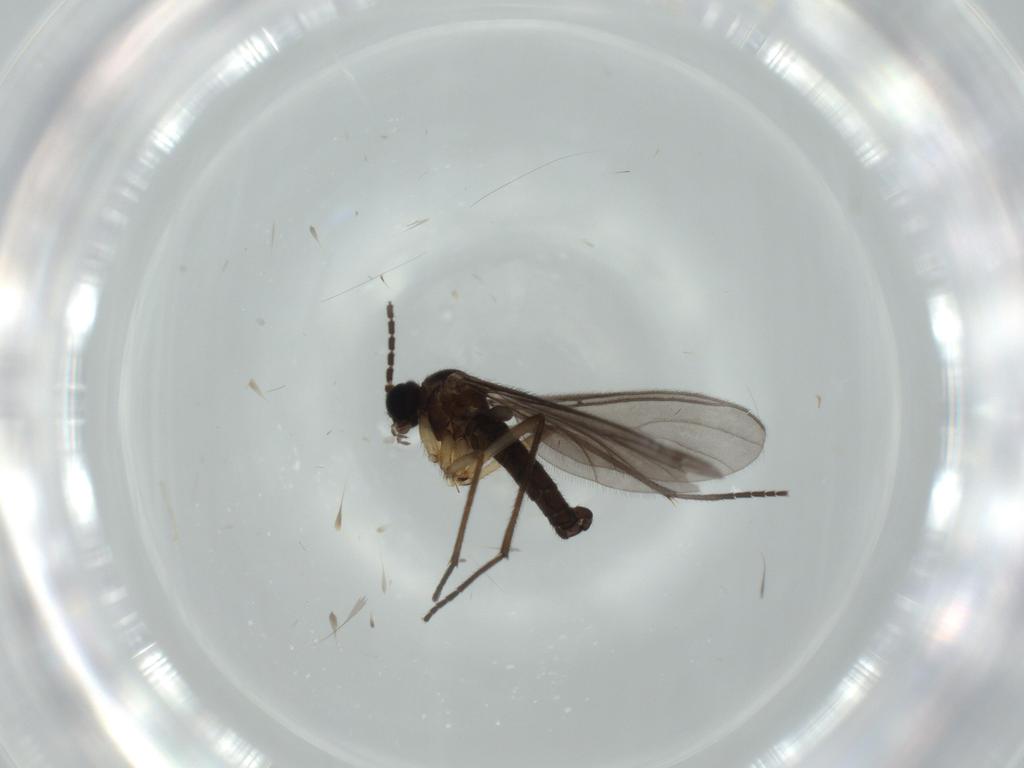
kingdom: Animalia
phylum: Arthropoda
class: Insecta
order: Diptera
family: Sciaridae
